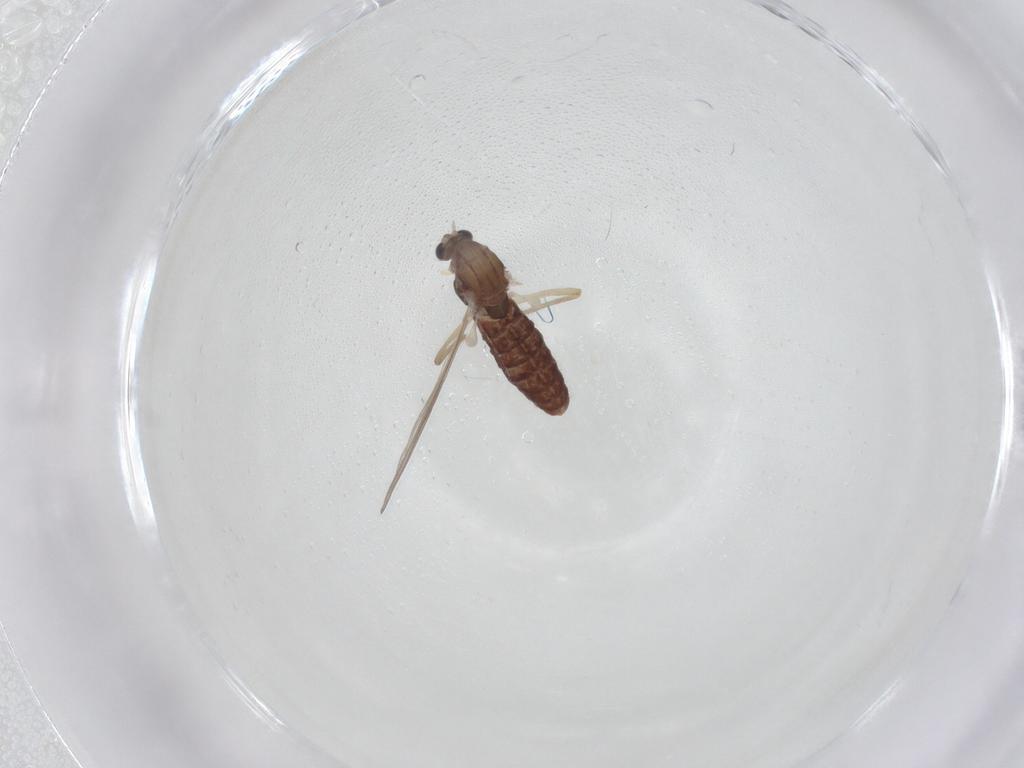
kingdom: Animalia
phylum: Arthropoda
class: Insecta
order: Diptera
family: Chironomidae
